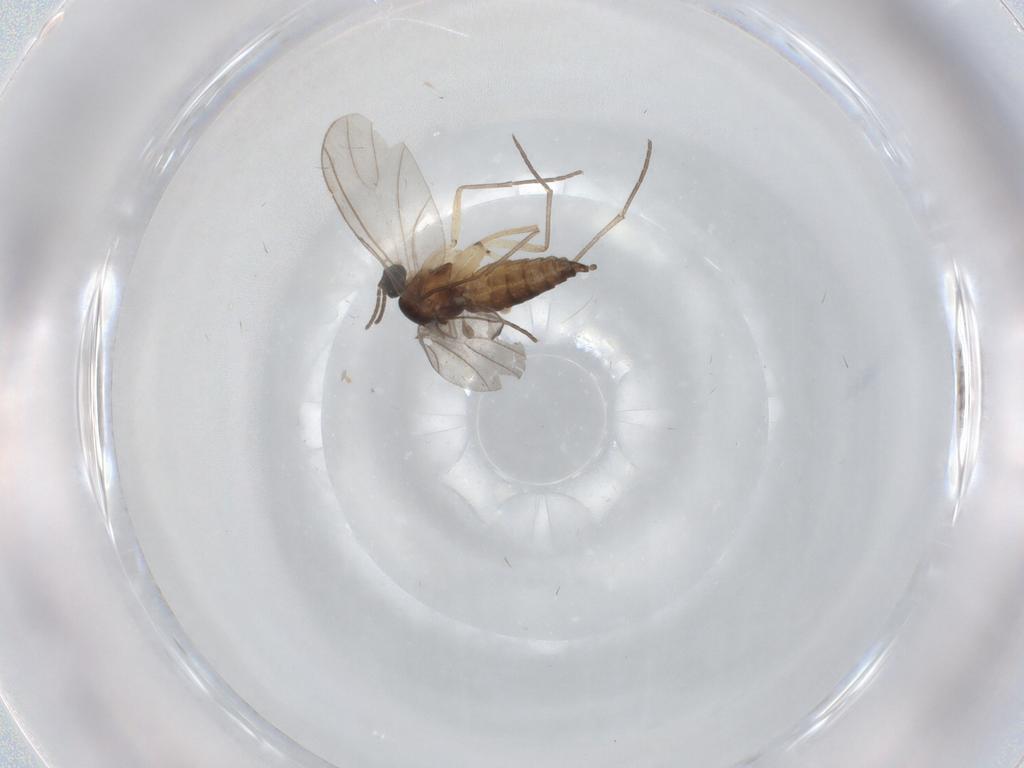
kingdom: Animalia
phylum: Arthropoda
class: Insecta
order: Diptera
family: Sciaridae
